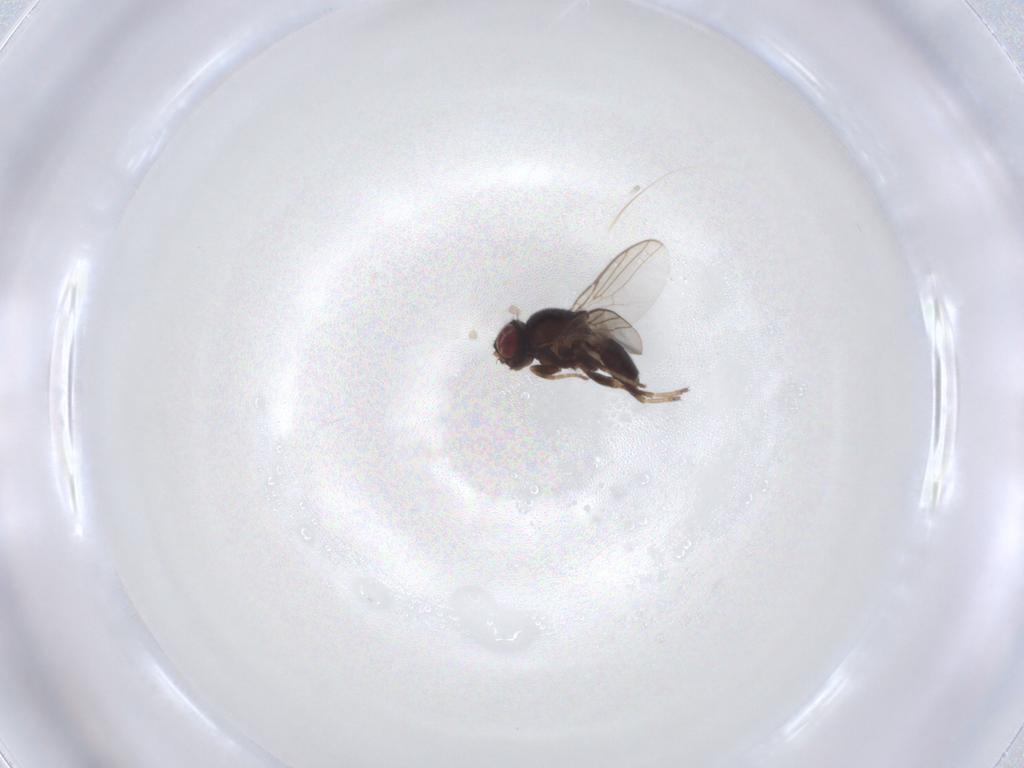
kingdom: Animalia
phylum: Arthropoda
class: Insecta
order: Diptera
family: Chloropidae
